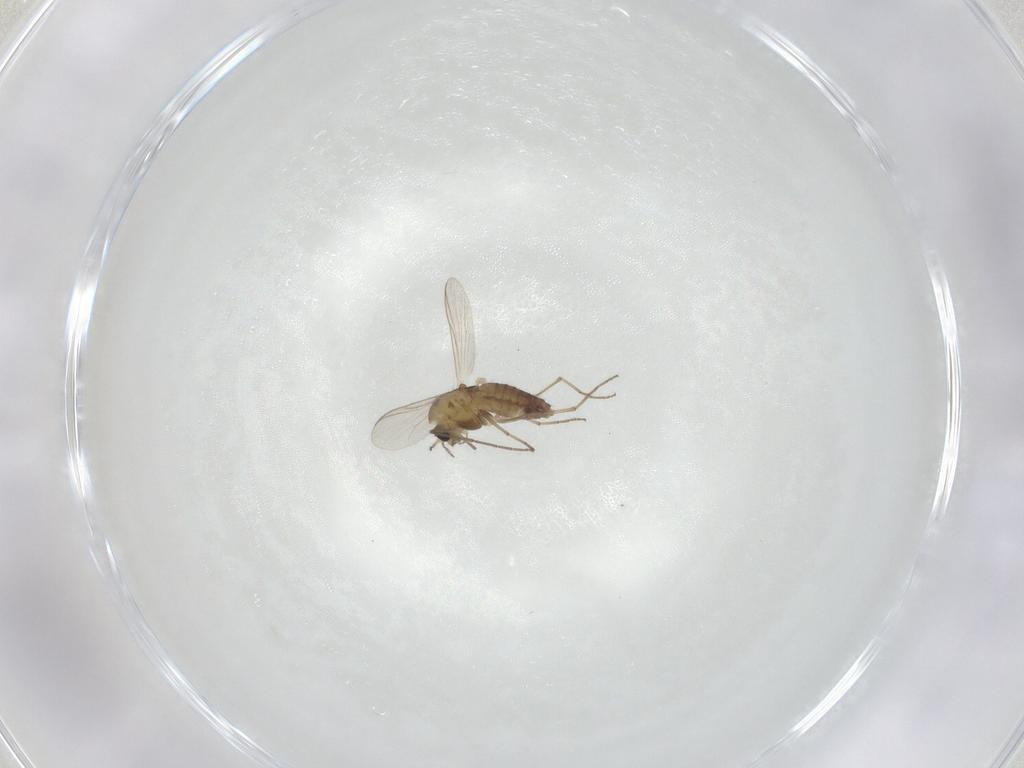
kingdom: Animalia
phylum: Arthropoda
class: Insecta
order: Diptera
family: Chironomidae
